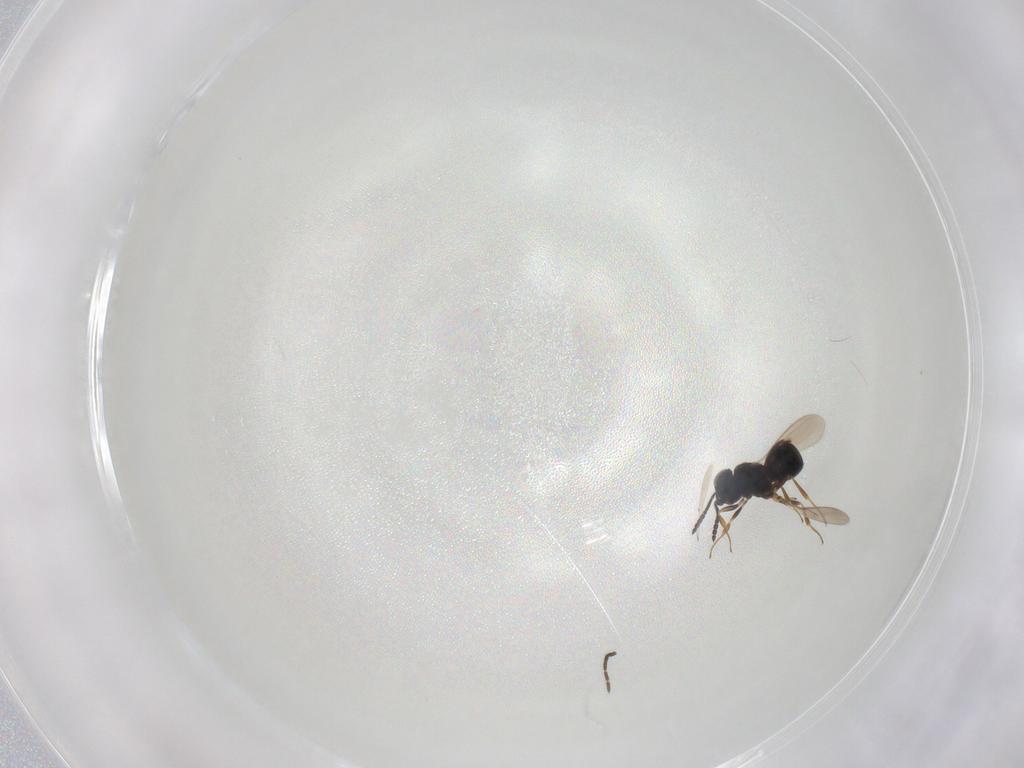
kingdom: Animalia
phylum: Arthropoda
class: Insecta
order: Hymenoptera
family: Scelionidae
